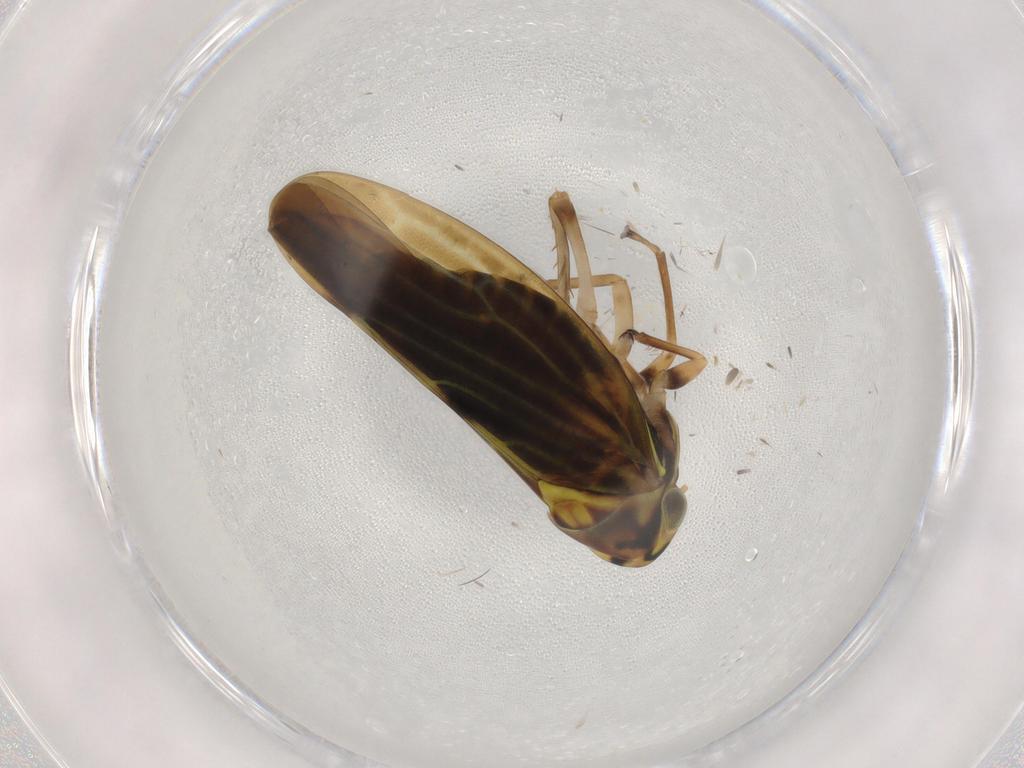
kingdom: Animalia
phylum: Arthropoda
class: Insecta
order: Hemiptera
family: Cicadellidae
